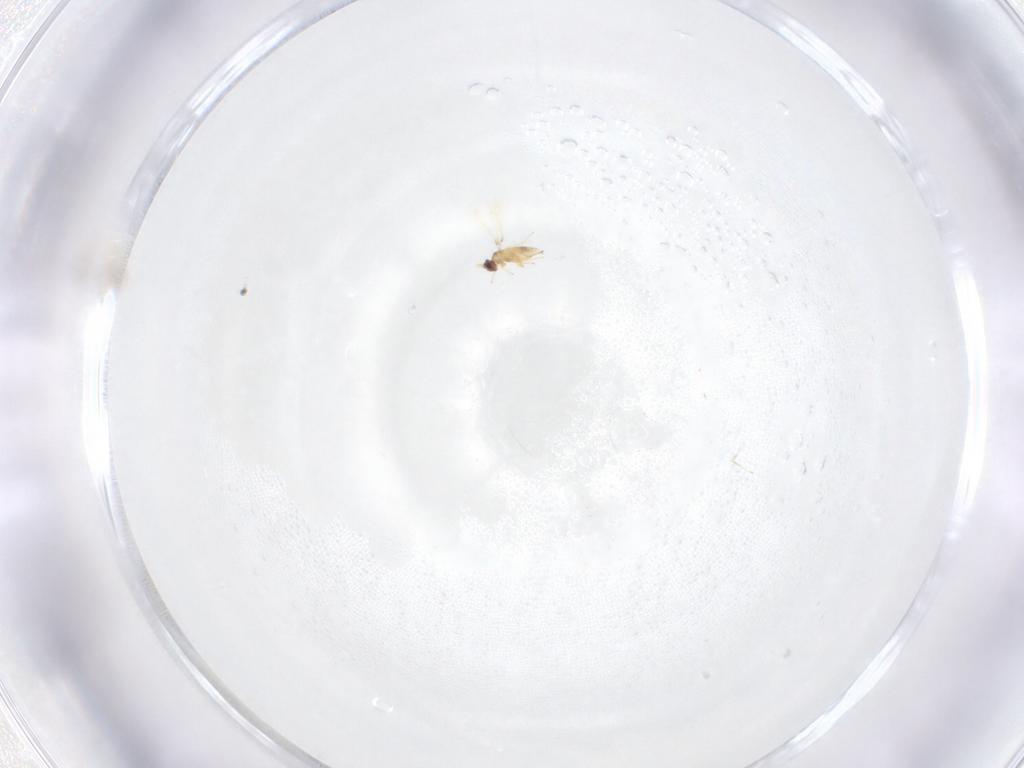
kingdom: Animalia
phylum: Arthropoda
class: Insecta
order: Hymenoptera
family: Mymaridae
